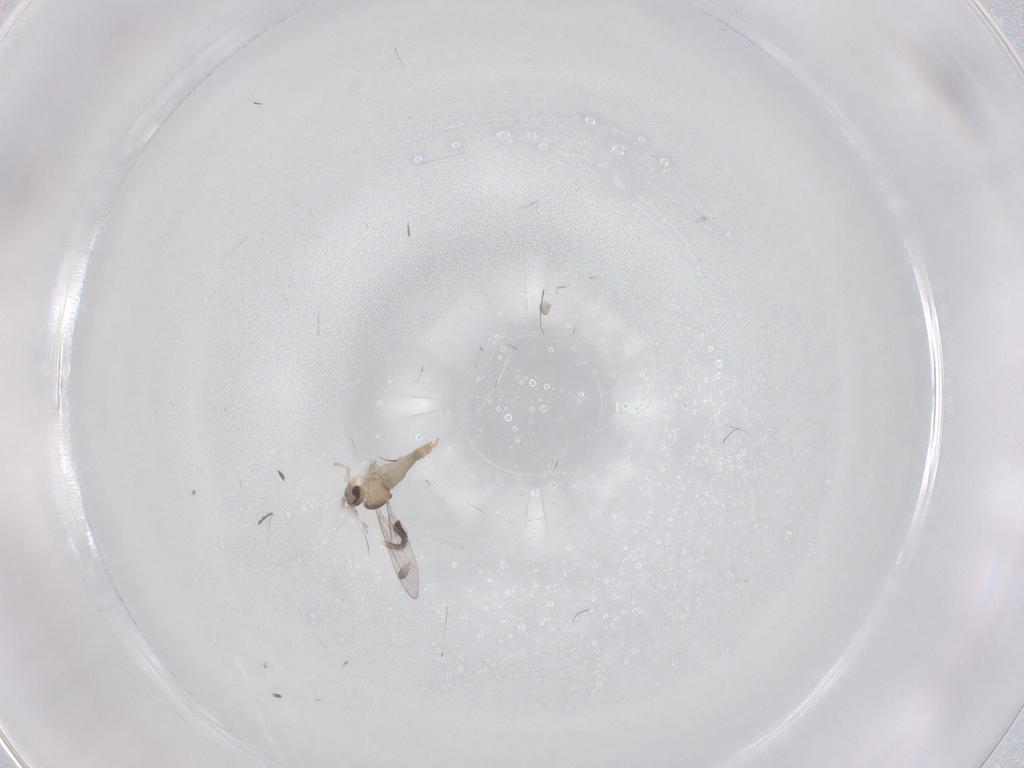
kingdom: Animalia
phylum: Arthropoda
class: Insecta
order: Diptera
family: Cecidomyiidae
